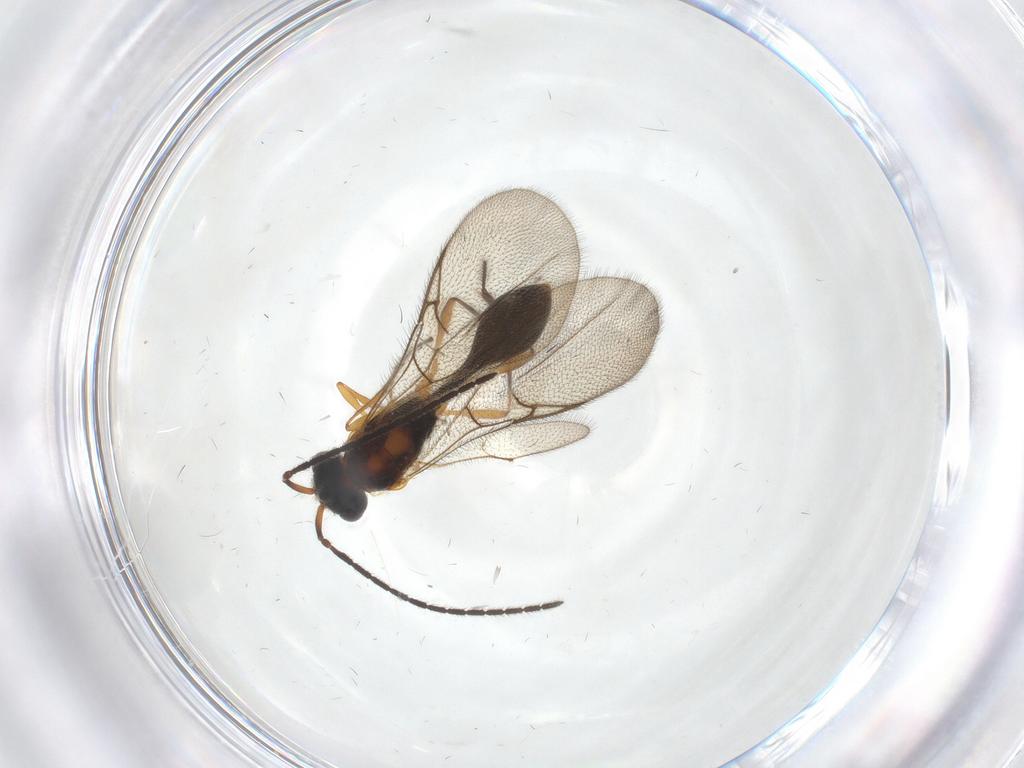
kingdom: Animalia
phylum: Arthropoda
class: Insecta
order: Hymenoptera
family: Diapriidae
